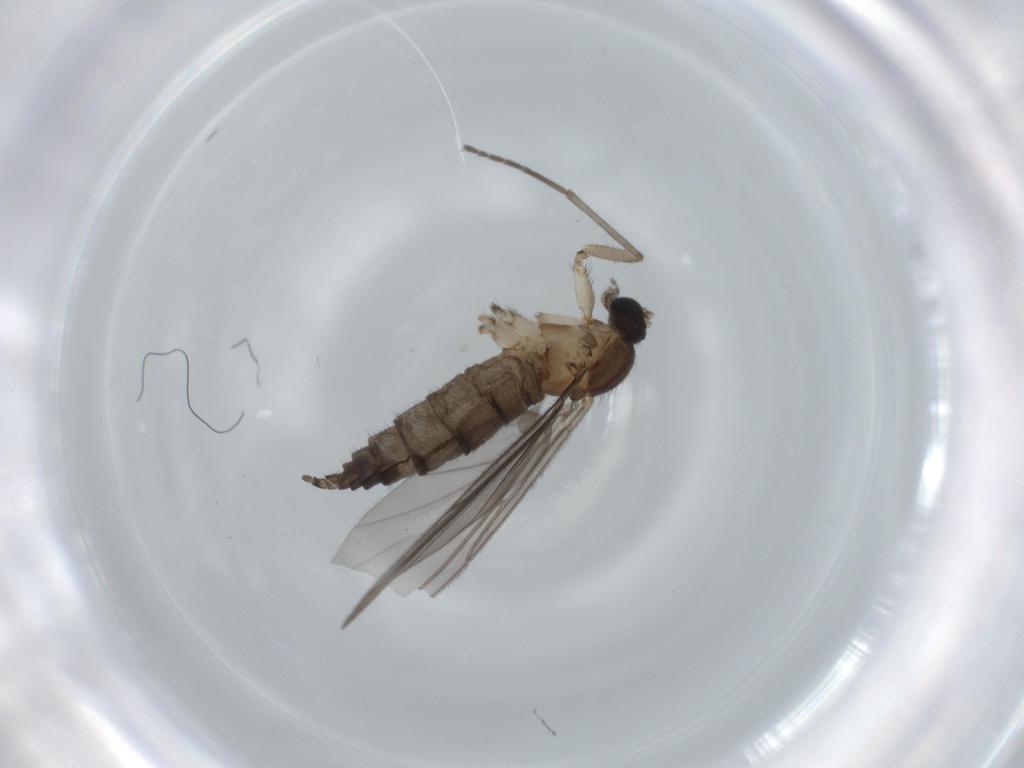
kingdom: Animalia
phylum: Arthropoda
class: Insecta
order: Diptera
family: Sciaridae
